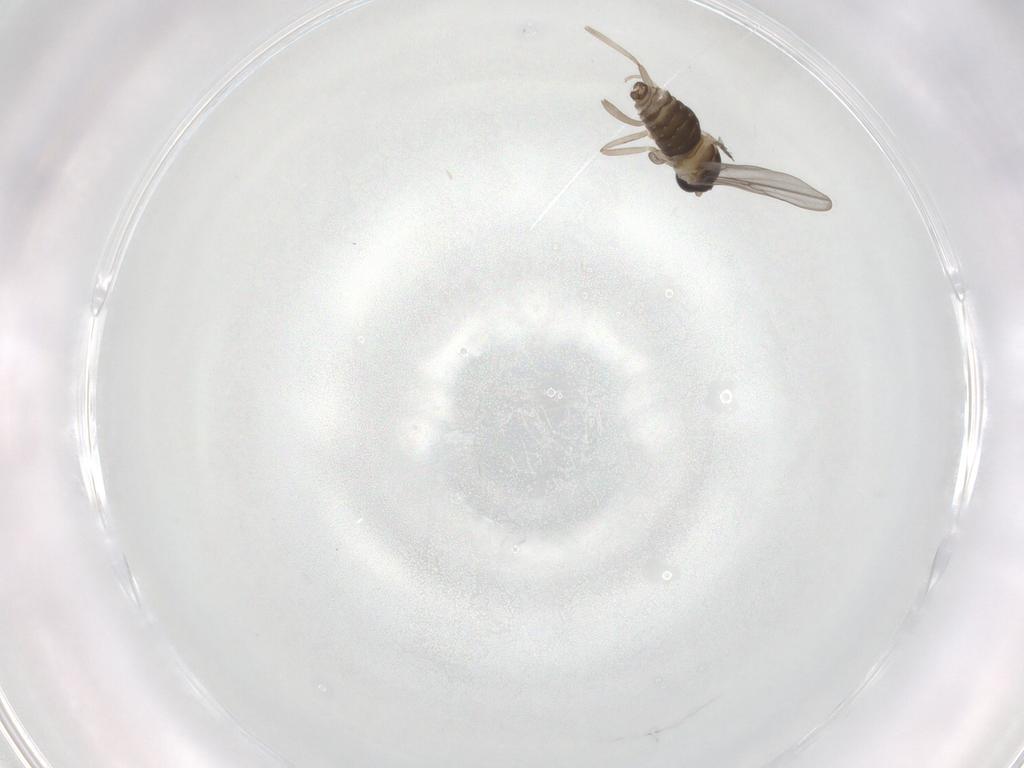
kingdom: Animalia
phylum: Arthropoda
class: Insecta
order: Diptera
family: Cecidomyiidae
